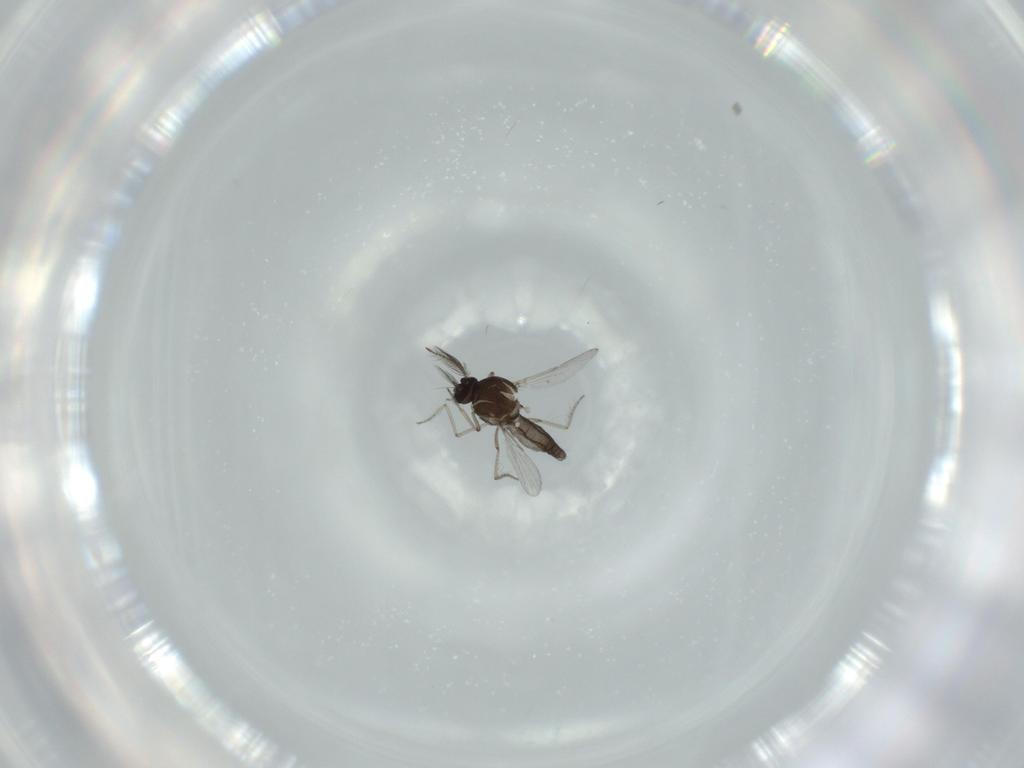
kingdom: Animalia
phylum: Arthropoda
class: Insecta
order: Diptera
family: Ceratopogonidae
